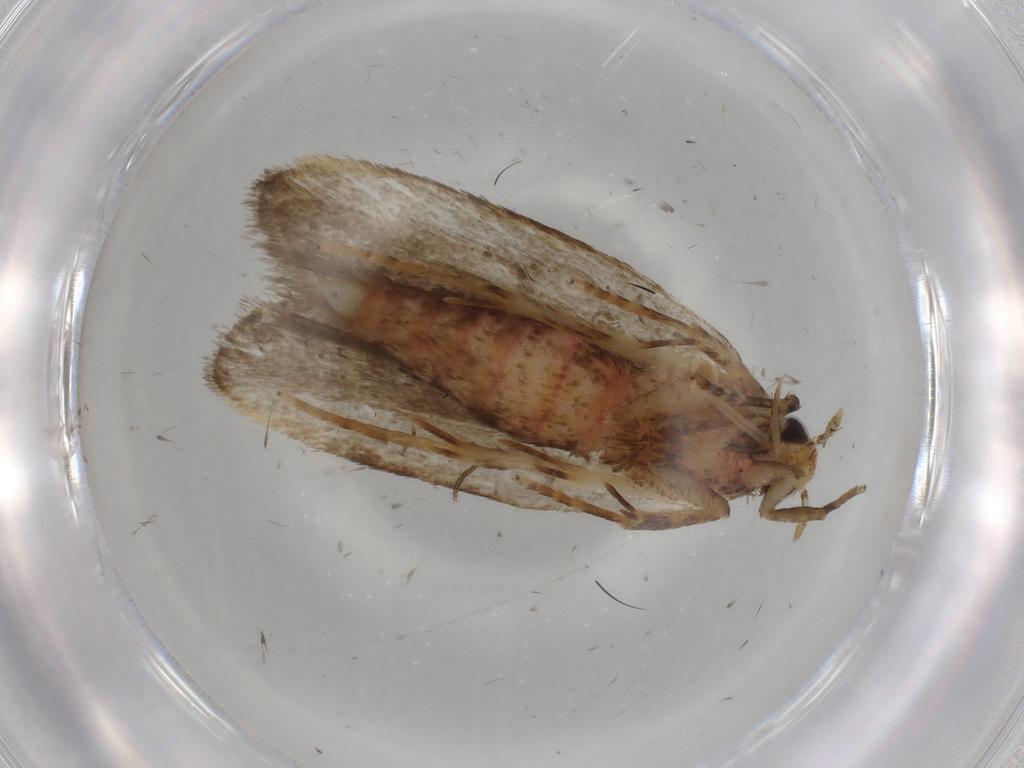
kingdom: Animalia
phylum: Arthropoda
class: Insecta
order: Lepidoptera
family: Autostichidae
